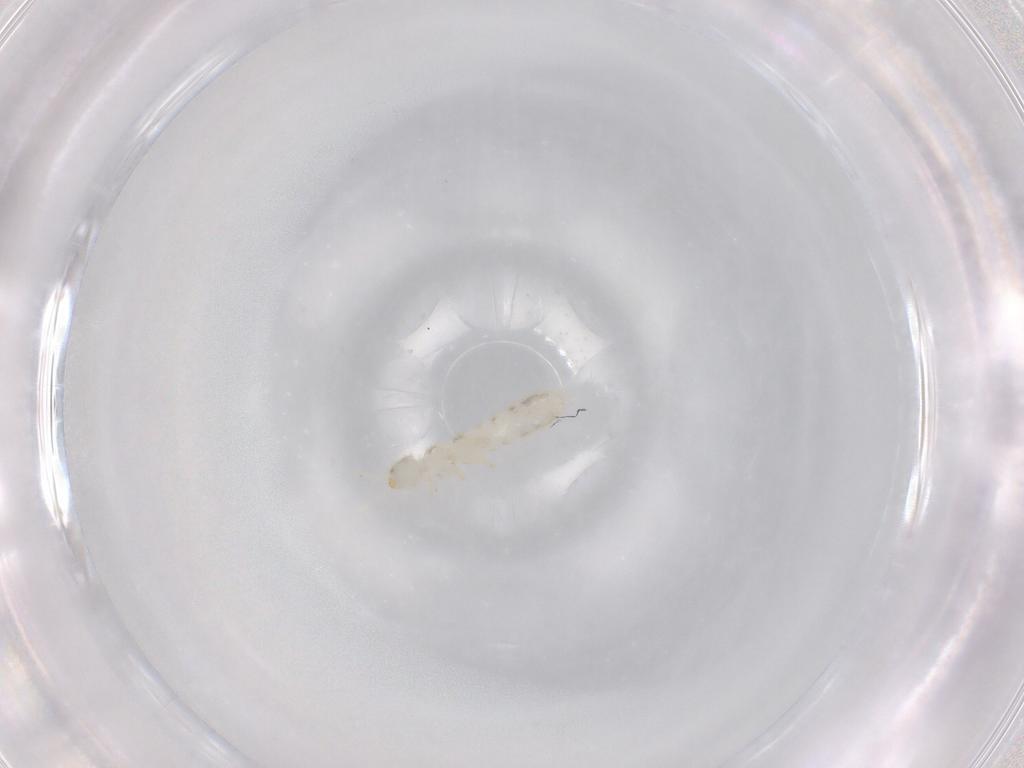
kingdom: Animalia
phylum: Arthropoda
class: Collembola
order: Entomobryomorpha
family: Isotomidae
